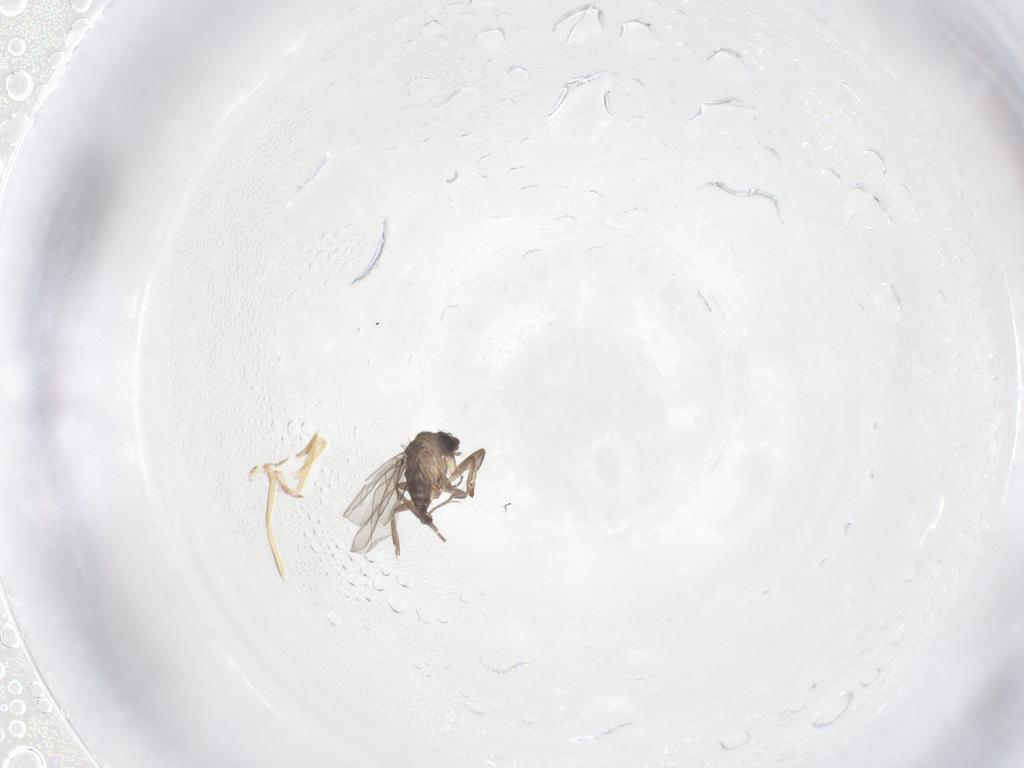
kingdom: Animalia
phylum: Arthropoda
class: Insecta
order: Diptera
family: Phoridae
